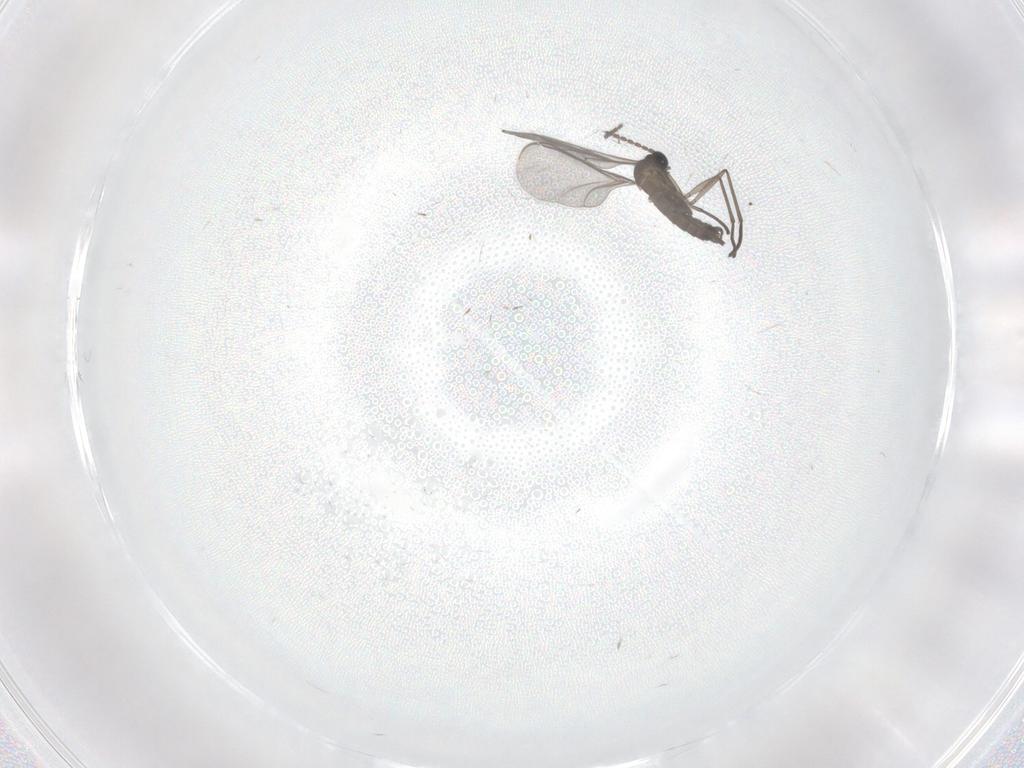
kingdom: Animalia
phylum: Arthropoda
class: Insecta
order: Diptera
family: Cecidomyiidae
